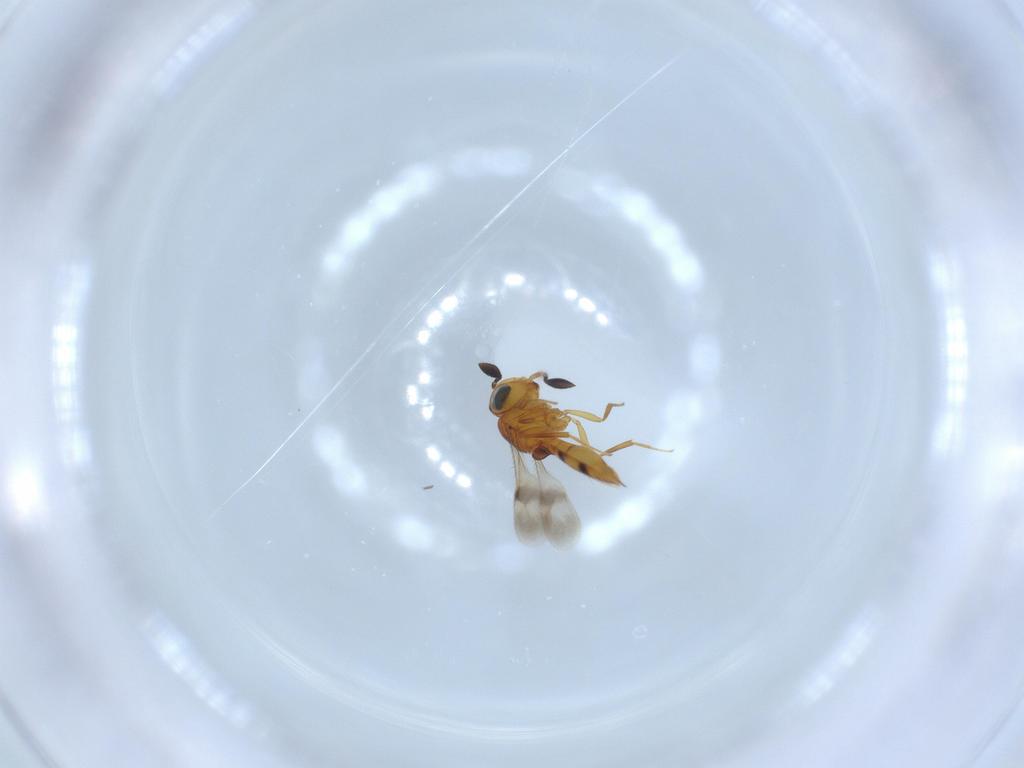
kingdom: Animalia
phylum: Arthropoda
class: Insecta
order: Hymenoptera
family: Scelionidae
